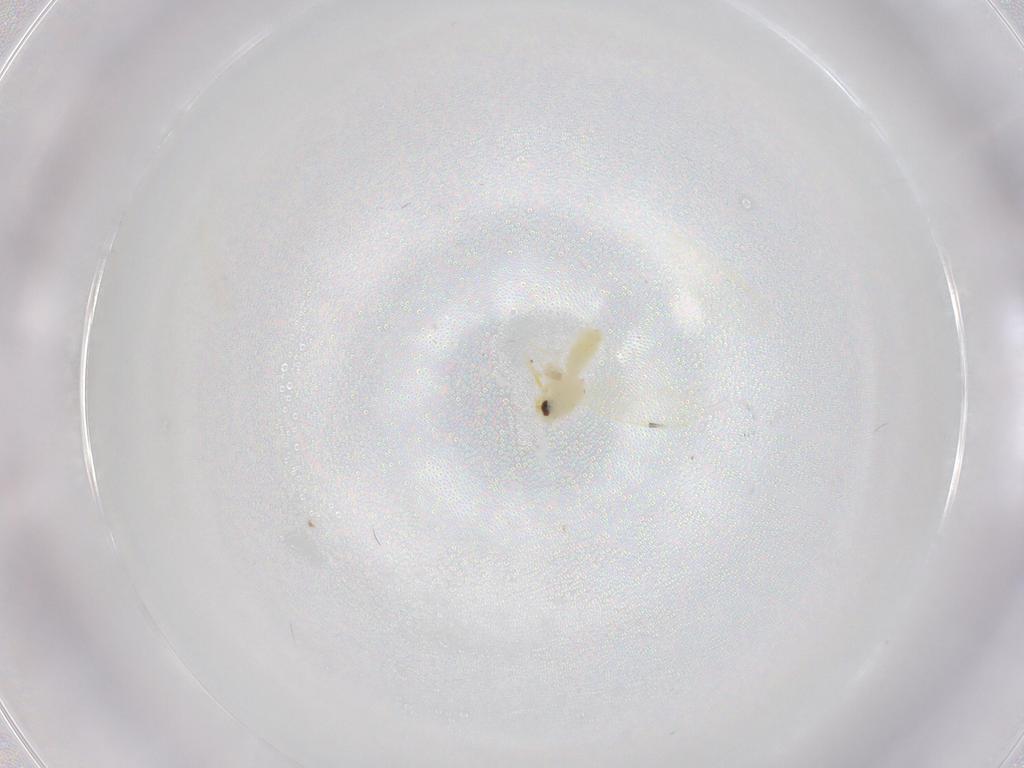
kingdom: Animalia
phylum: Arthropoda
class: Insecta
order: Hemiptera
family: Aleyrodidae
